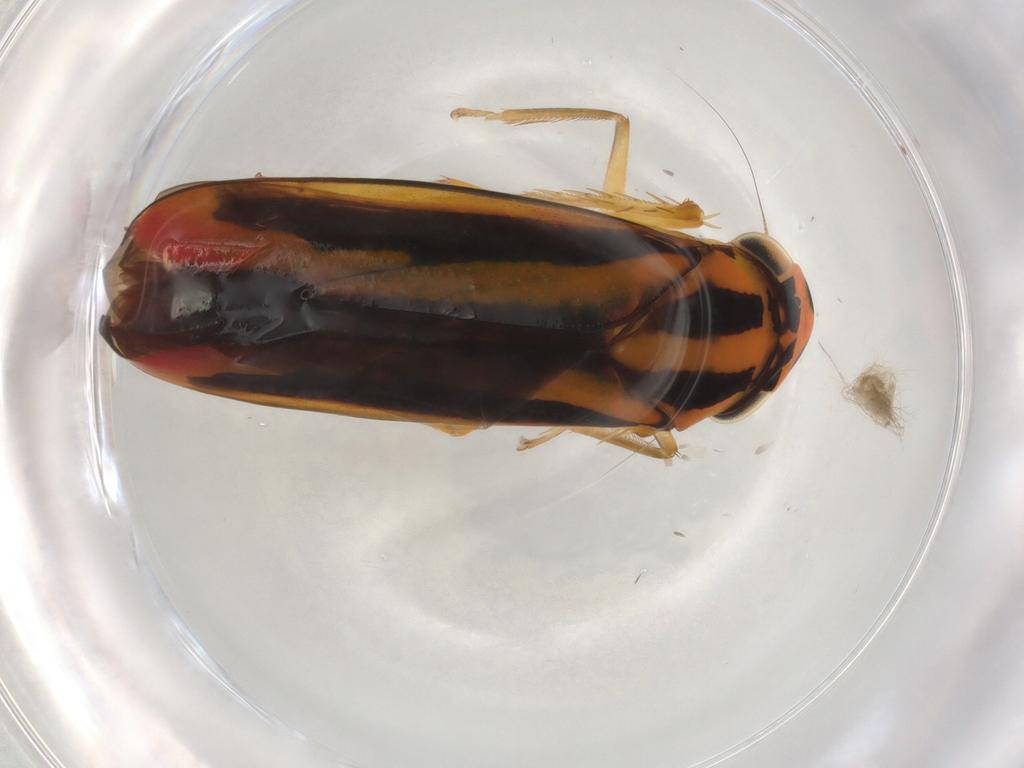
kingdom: Animalia
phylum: Arthropoda
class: Insecta
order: Hemiptera
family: Cicadellidae
